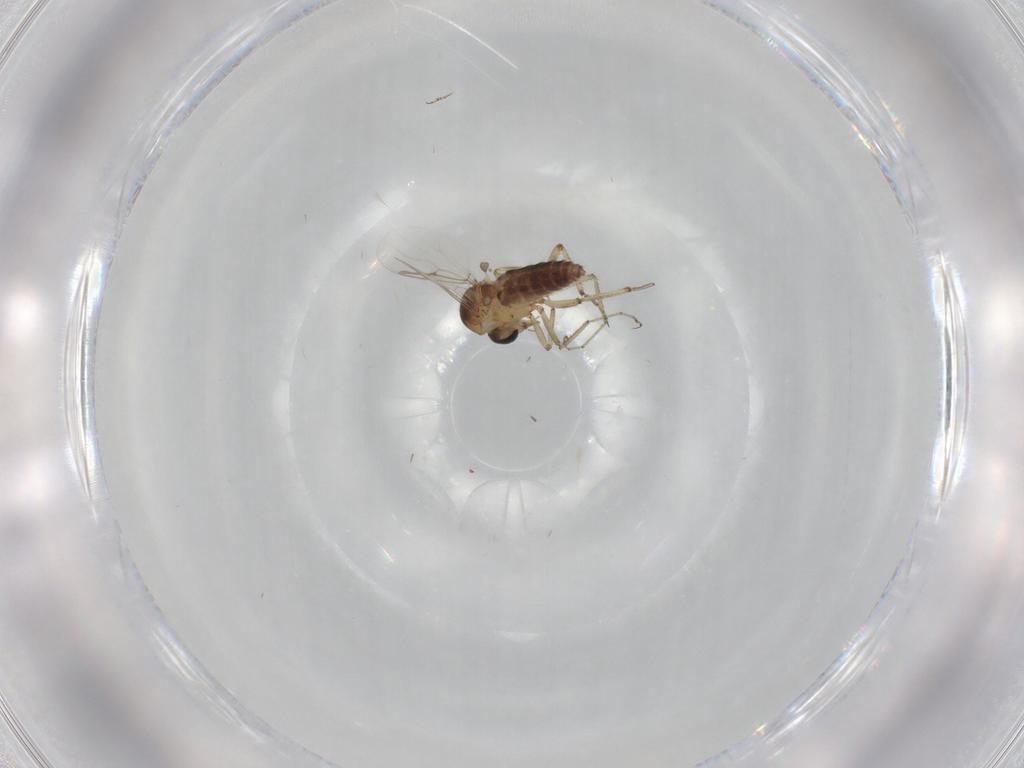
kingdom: Animalia
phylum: Arthropoda
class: Insecta
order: Diptera
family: Ceratopogonidae
